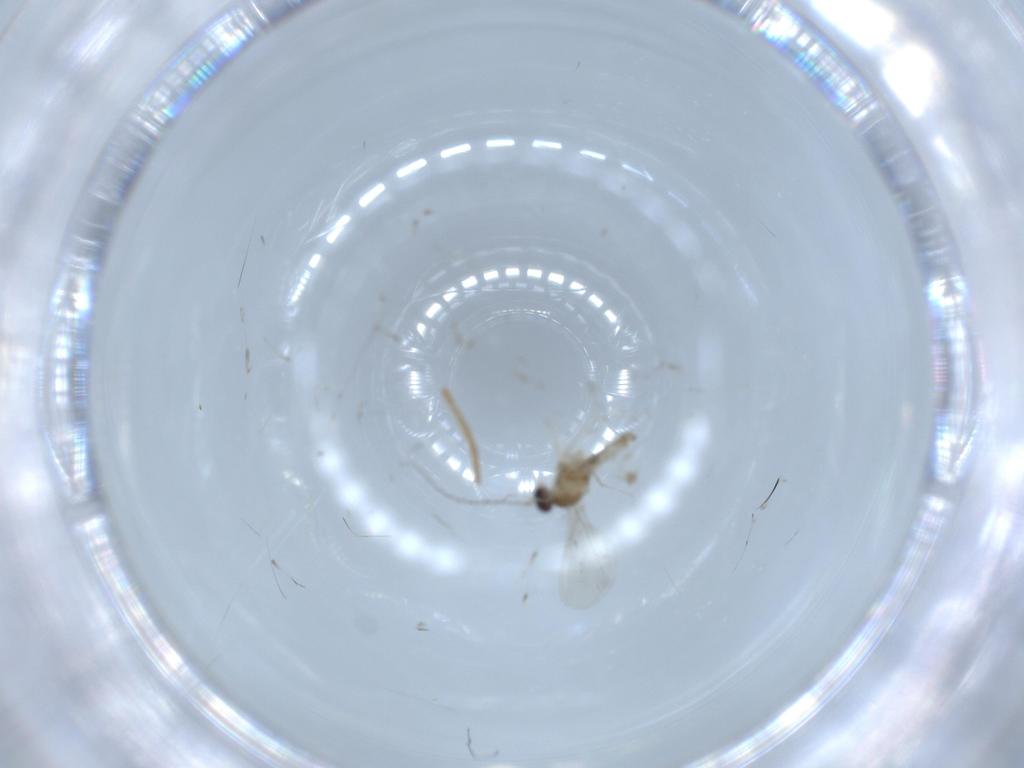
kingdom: Animalia
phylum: Arthropoda
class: Insecta
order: Diptera
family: Cecidomyiidae
